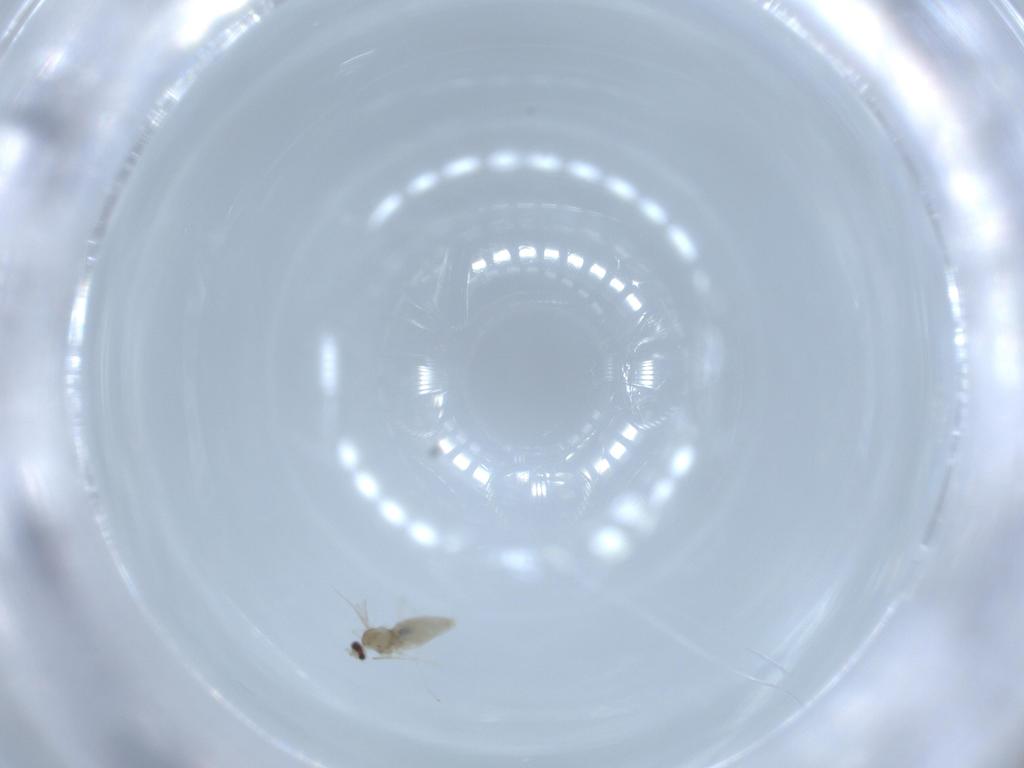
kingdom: Animalia
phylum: Arthropoda
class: Insecta
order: Diptera
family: Cecidomyiidae
